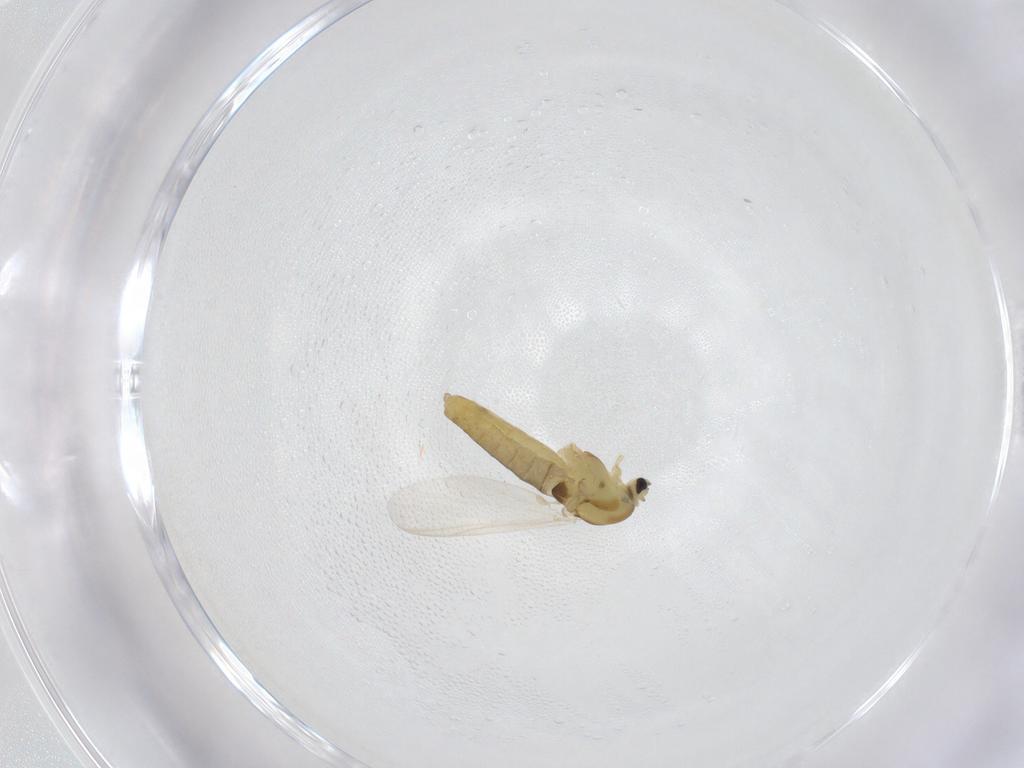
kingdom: Animalia
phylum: Arthropoda
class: Insecta
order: Diptera
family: Chironomidae
